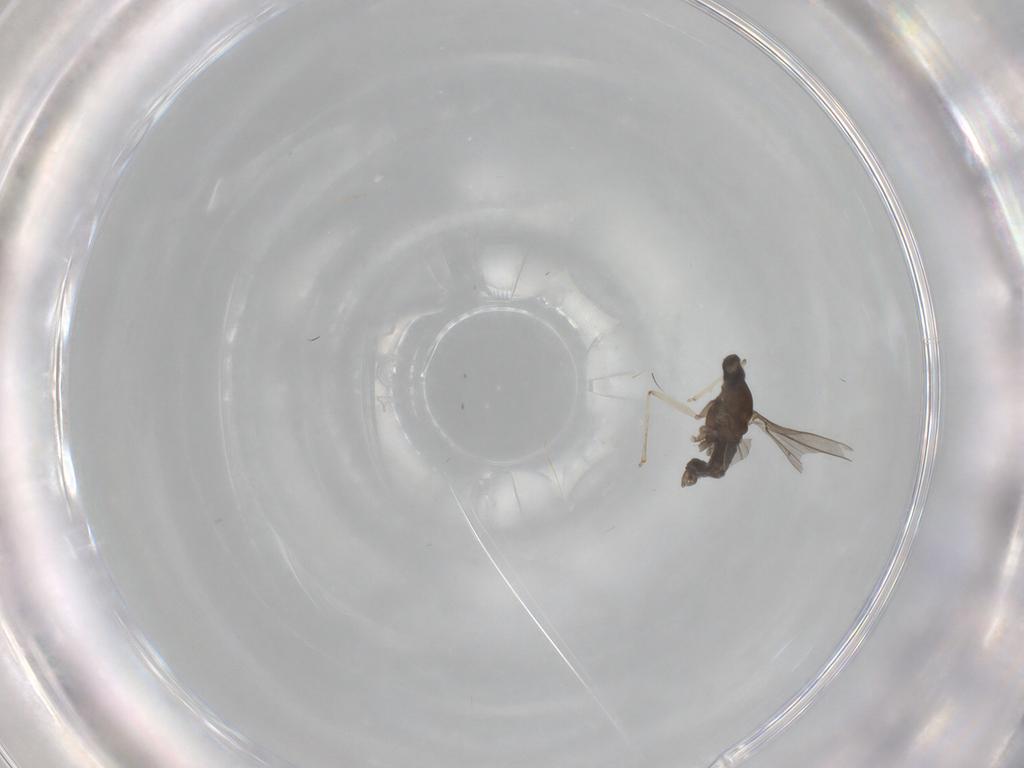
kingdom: Animalia
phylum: Arthropoda
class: Insecta
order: Diptera
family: Cecidomyiidae
